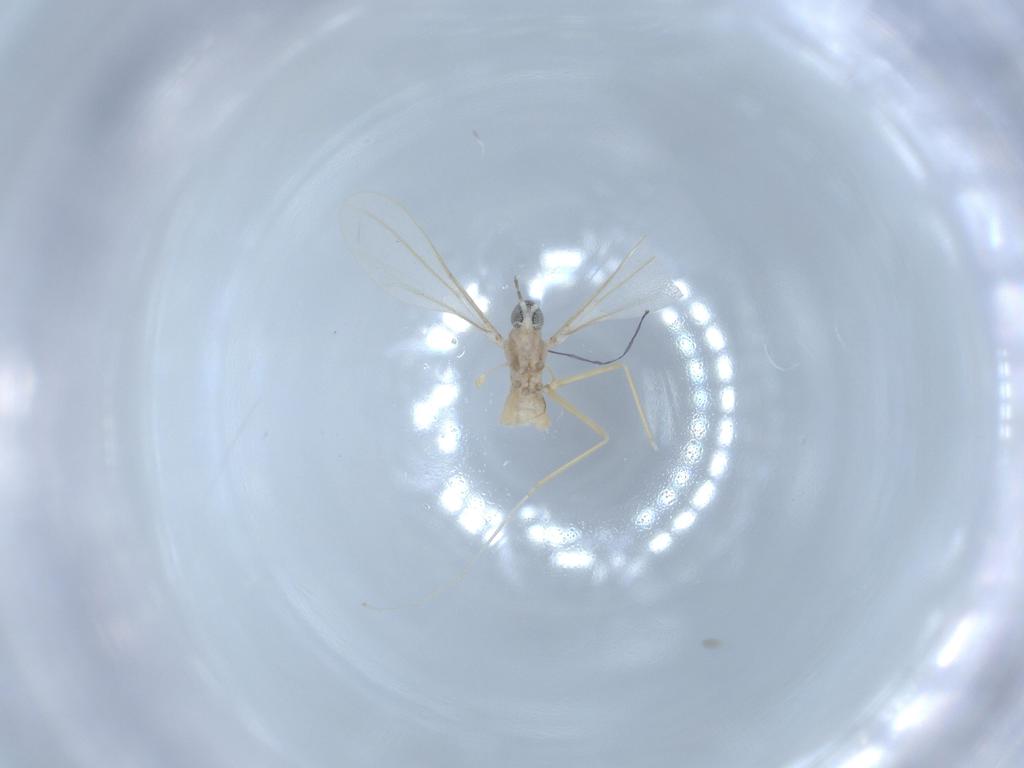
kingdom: Animalia
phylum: Arthropoda
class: Insecta
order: Diptera
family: Cecidomyiidae
